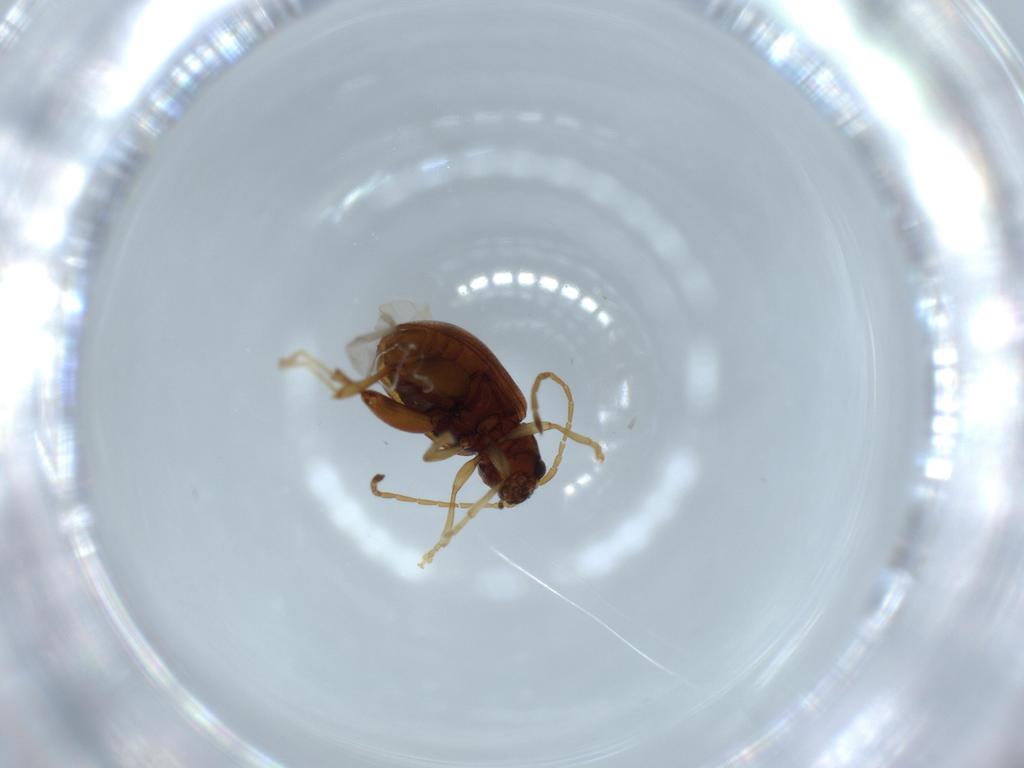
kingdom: Animalia
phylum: Arthropoda
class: Insecta
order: Coleoptera
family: Chrysomelidae
